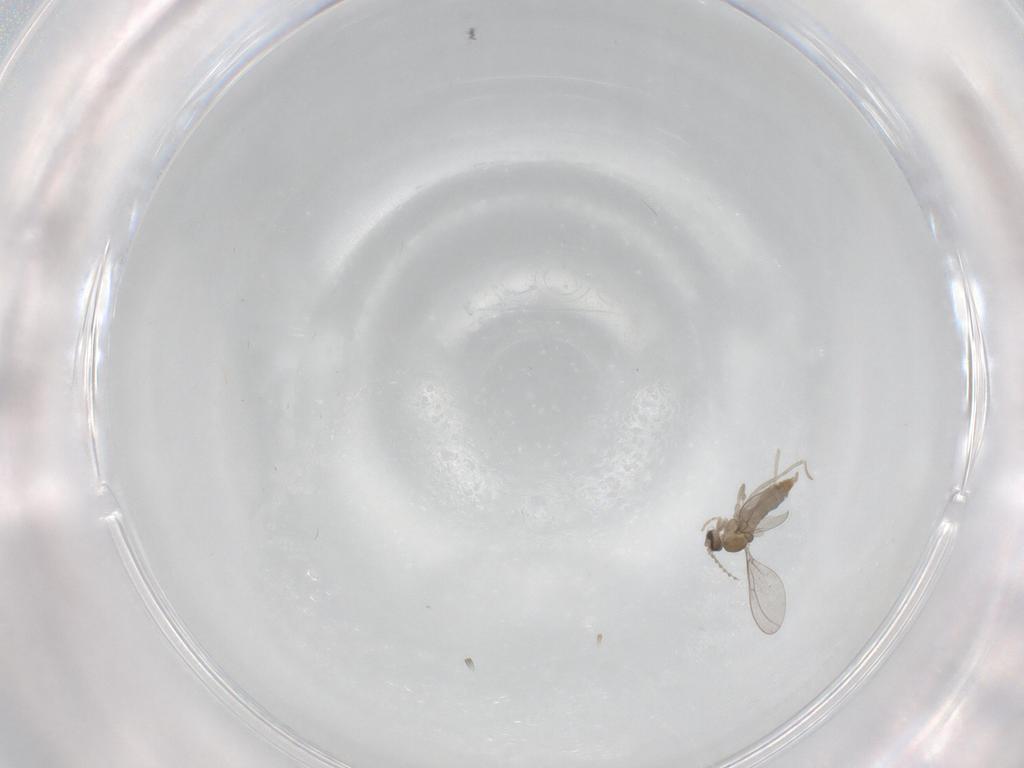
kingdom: Animalia
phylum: Arthropoda
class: Insecta
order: Diptera
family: Cecidomyiidae
